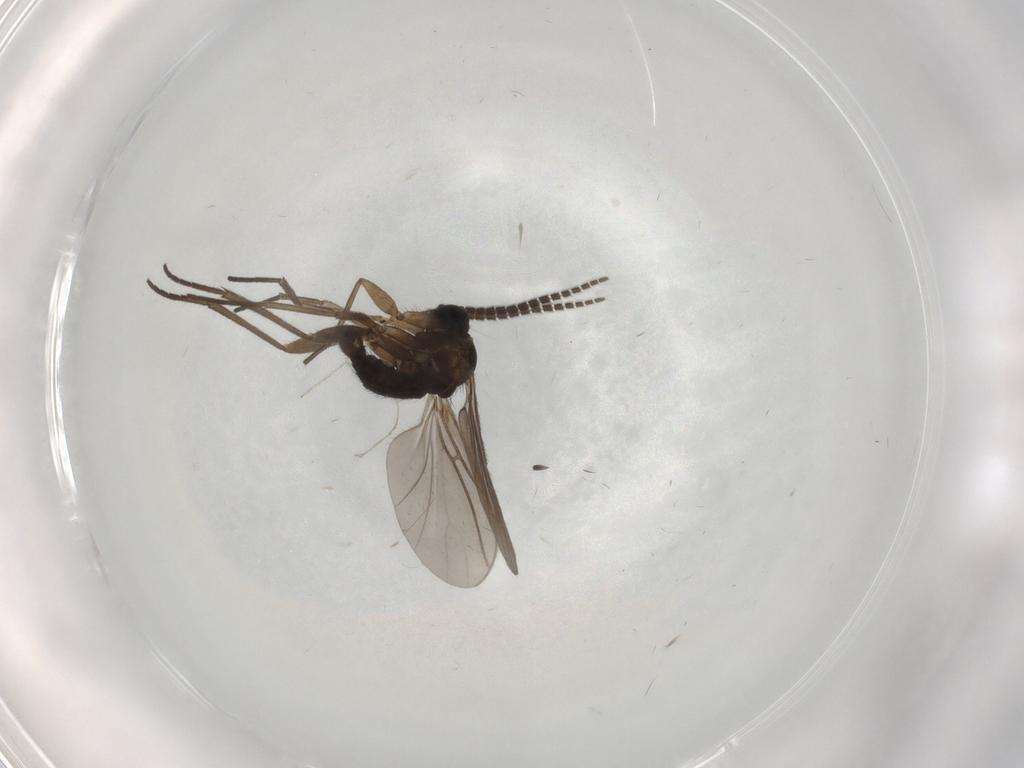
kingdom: Animalia
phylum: Arthropoda
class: Insecta
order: Diptera
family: Sciaridae
